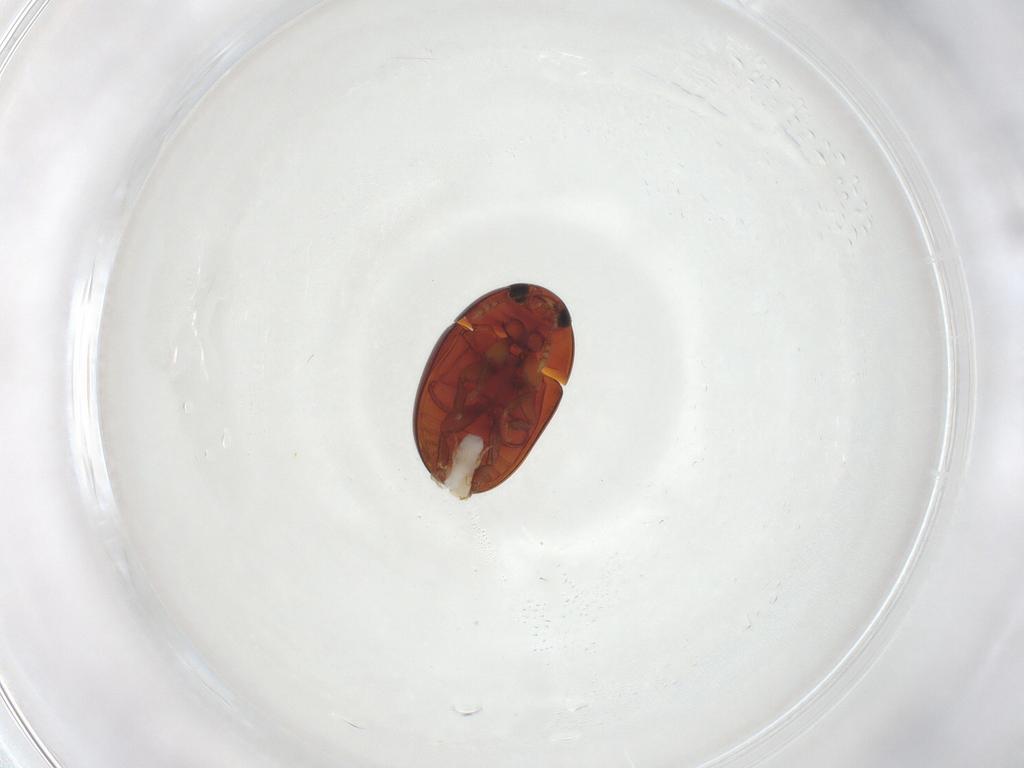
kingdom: Animalia
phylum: Arthropoda
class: Insecta
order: Coleoptera
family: Phalacridae
